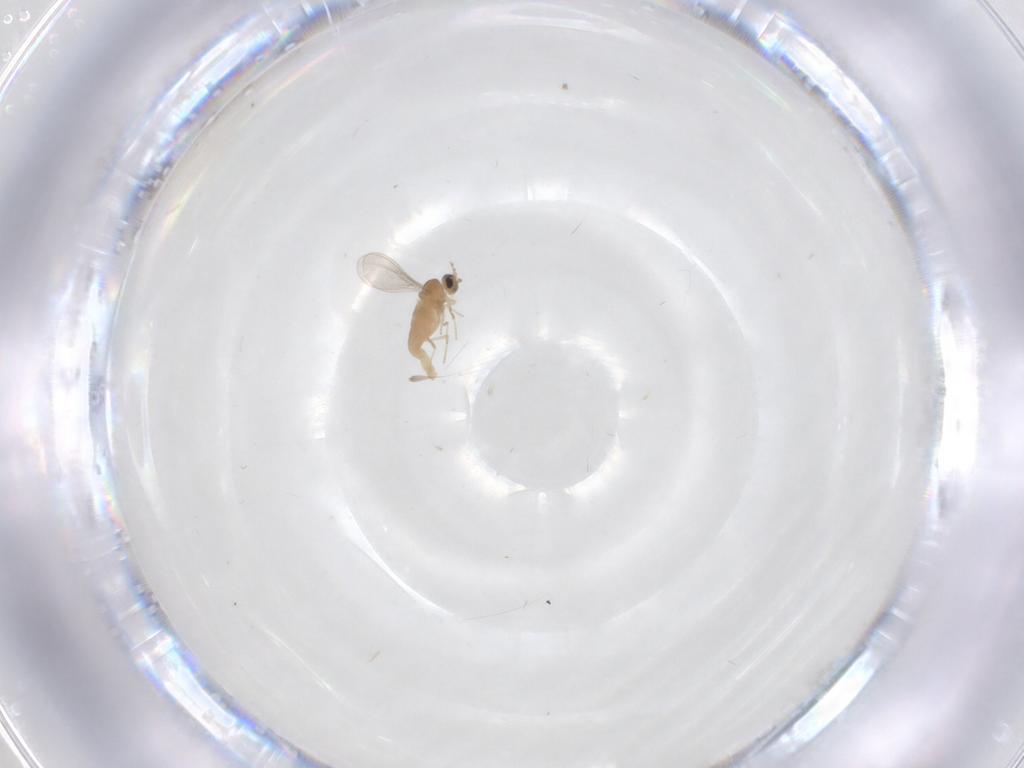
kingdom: Animalia
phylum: Arthropoda
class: Insecta
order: Diptera
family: Cecidomyiidae
